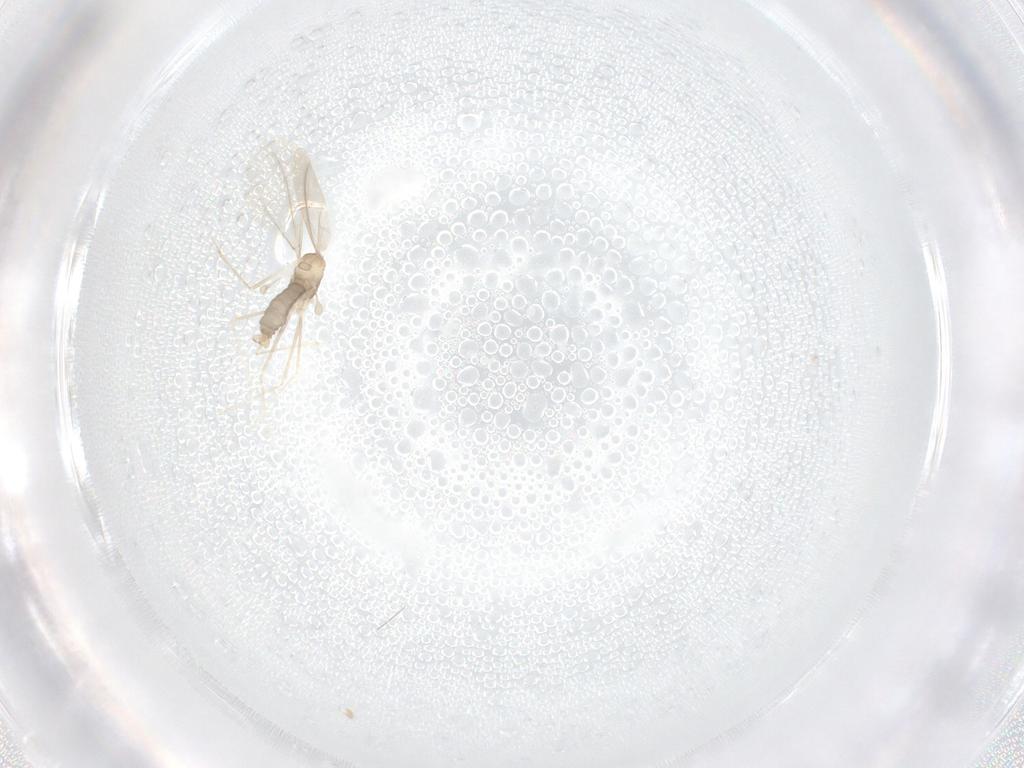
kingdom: Animalia
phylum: Arthropoda
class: Insecta
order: Diptera
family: Cecidomyiidae
